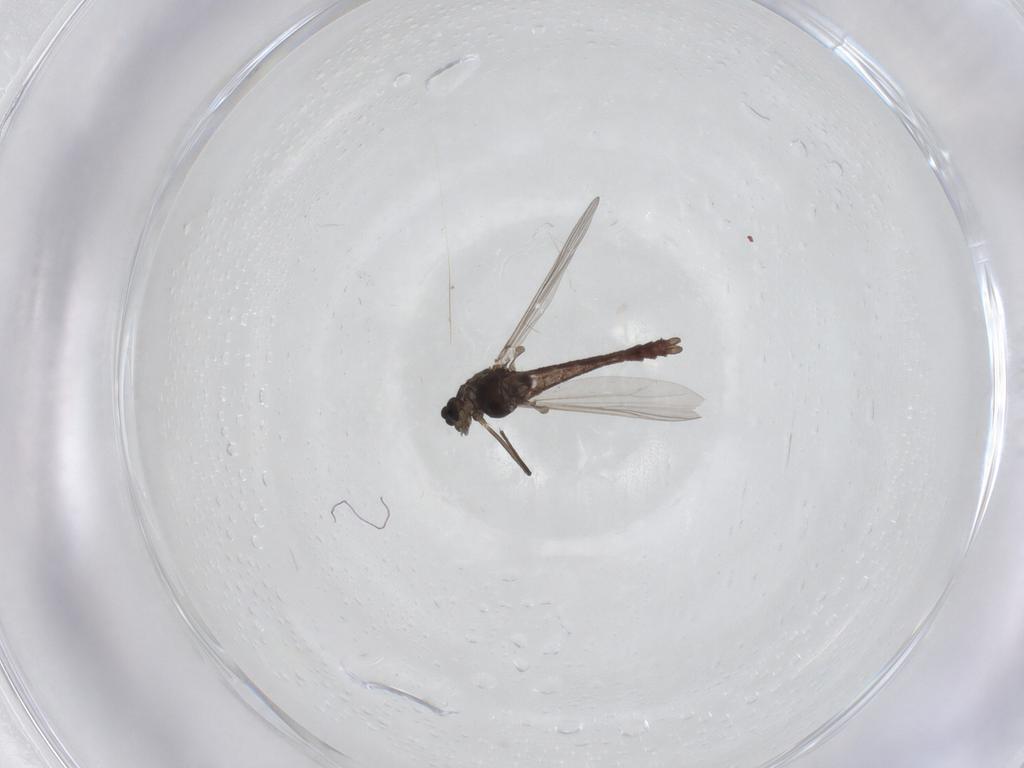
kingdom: Animalia
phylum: Arthropoda
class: Insecta
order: Diptera
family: Chironomidae
